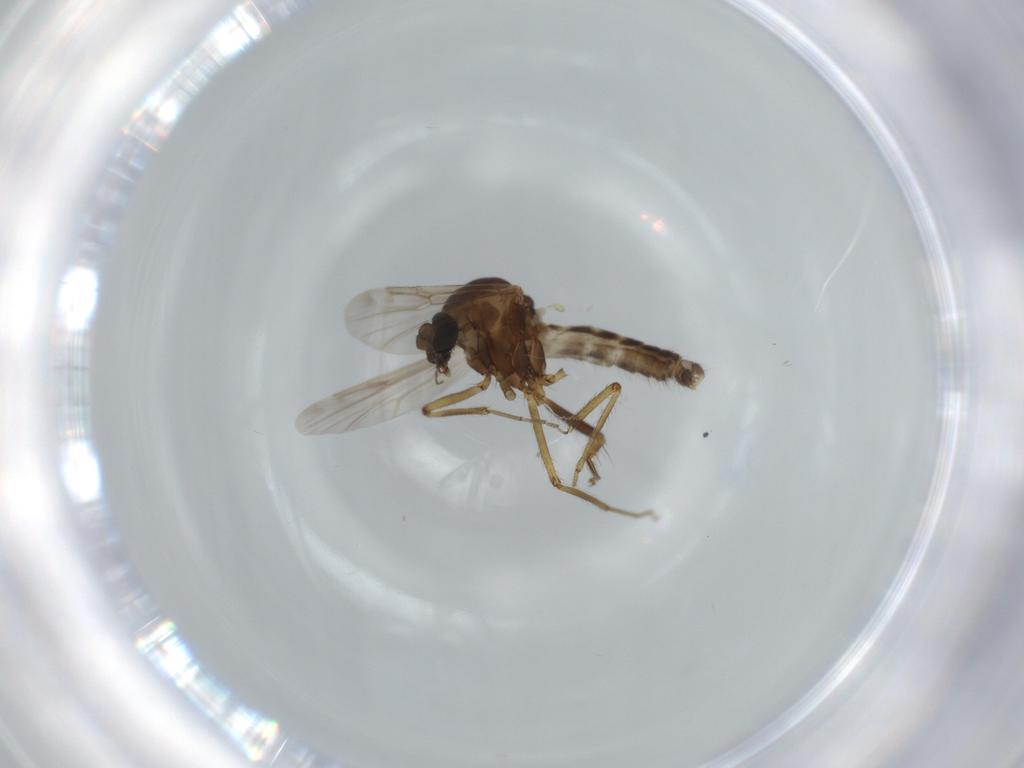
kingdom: Animalia
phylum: Arthropoda
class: Insecta
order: Diptera
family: Ceratopogonidae
